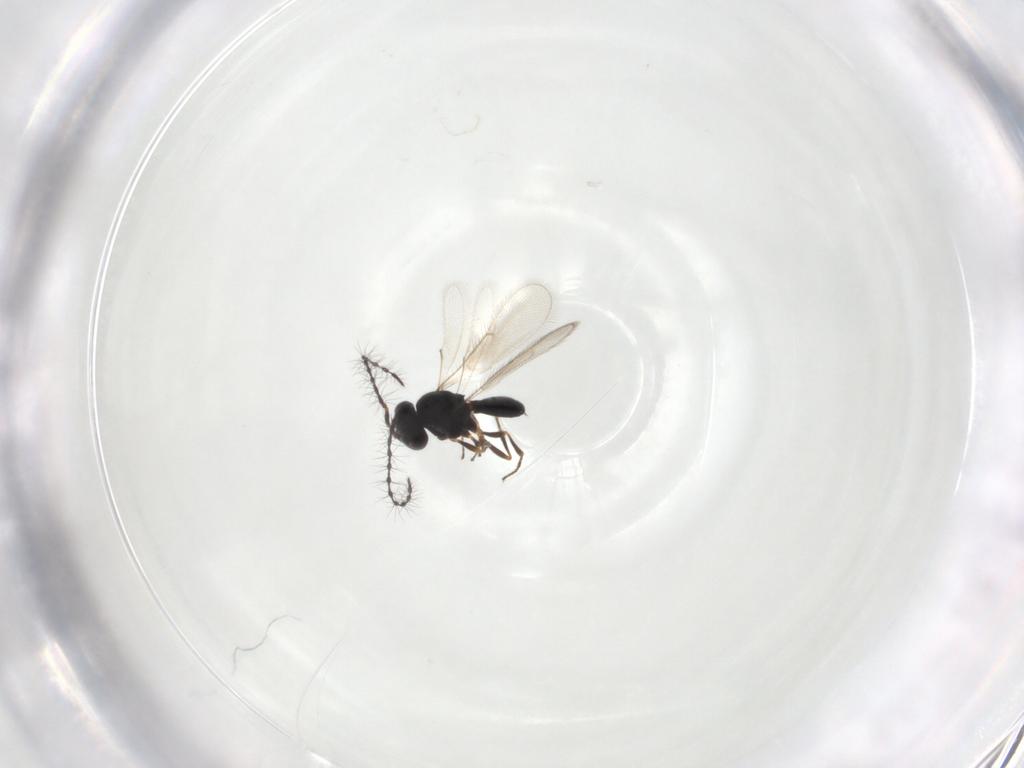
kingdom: Animalia
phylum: Arthropoda
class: Insecta
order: Hymenoptera
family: Scelionidae
